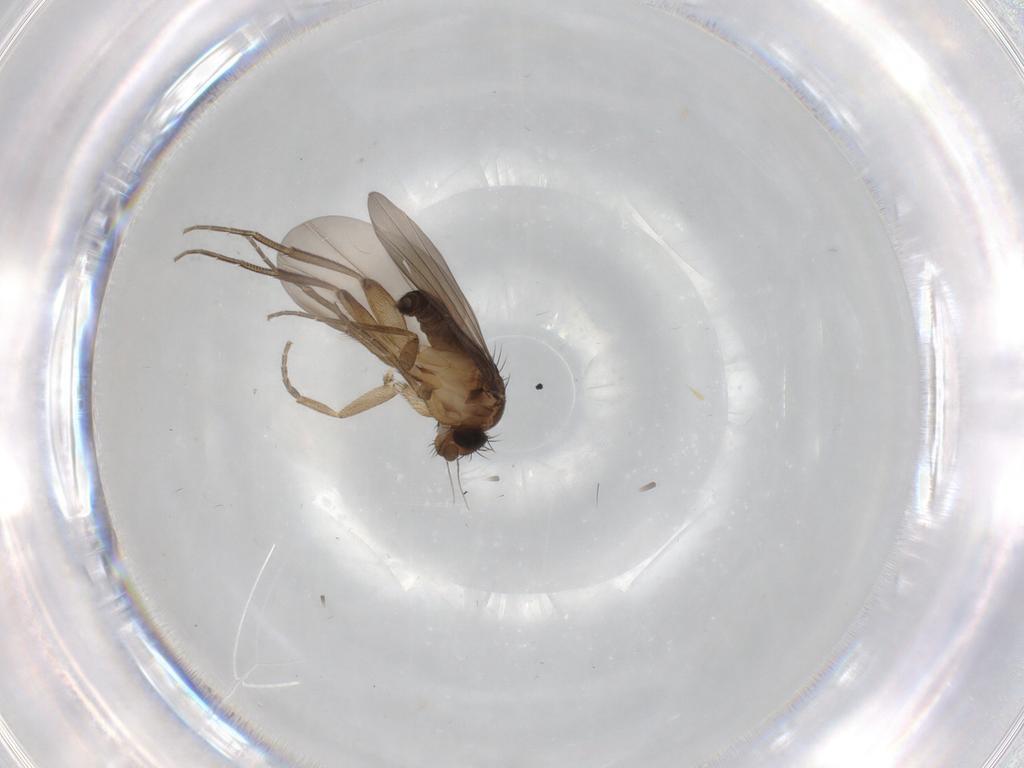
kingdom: Animalia
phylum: Arthropoda
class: Insecta
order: Diptera
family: Phoridae
